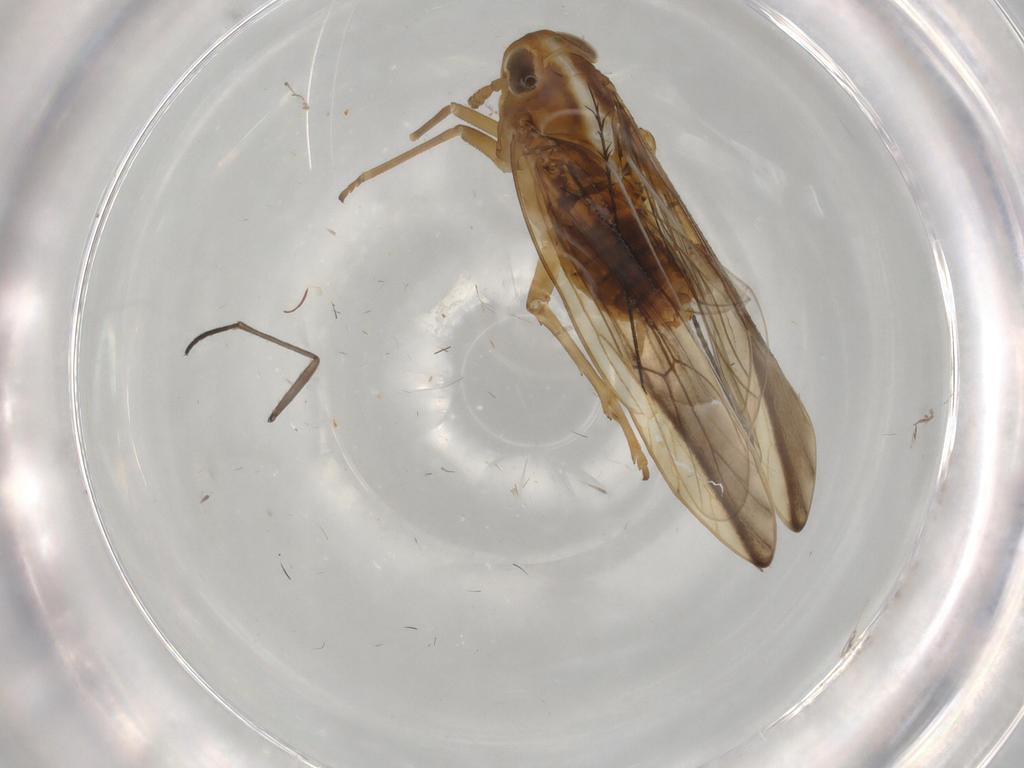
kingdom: Animalia
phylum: Arthropoda
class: Insecta
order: Hemiptera
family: Delphacidae
